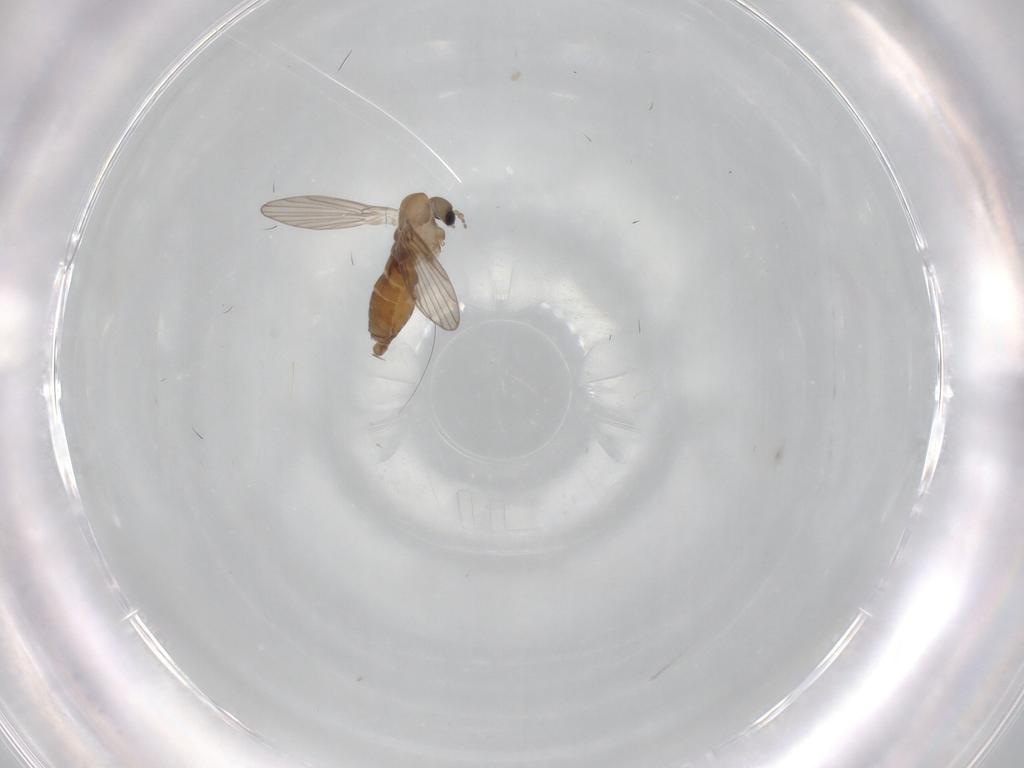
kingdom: Animalia
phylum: Arthropoda
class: Insecta
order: Diptera
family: Psychodidae
